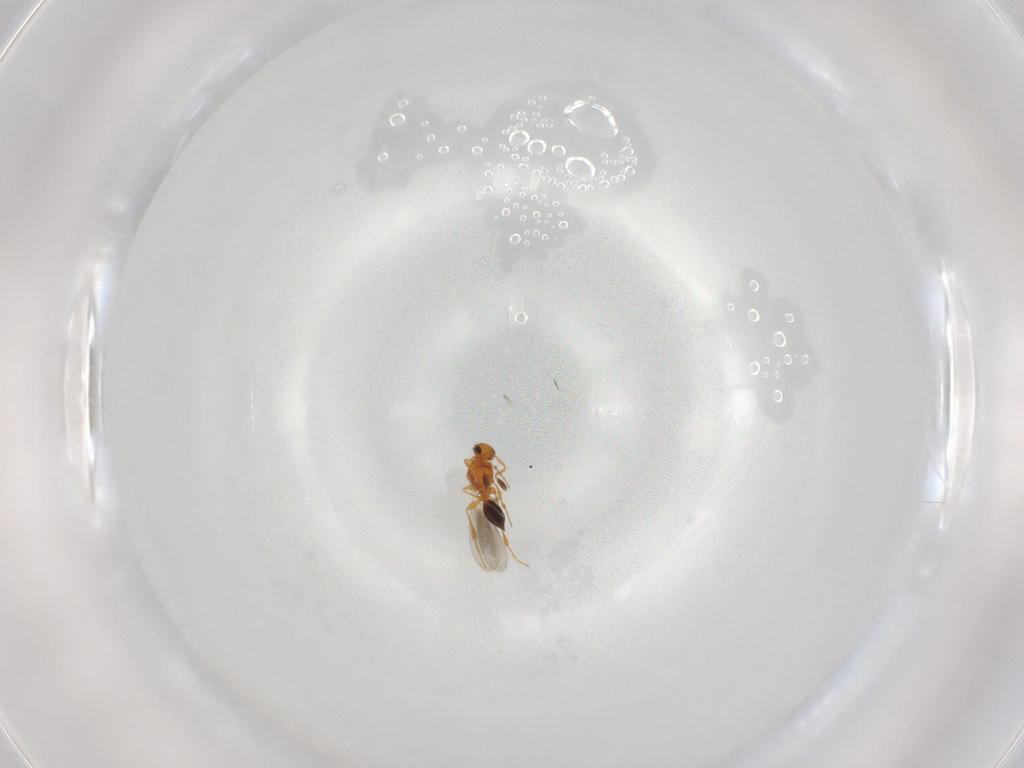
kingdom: Animalia
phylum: Arthropoda
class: Insecta
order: Hymenoptera
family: Platygastridae
